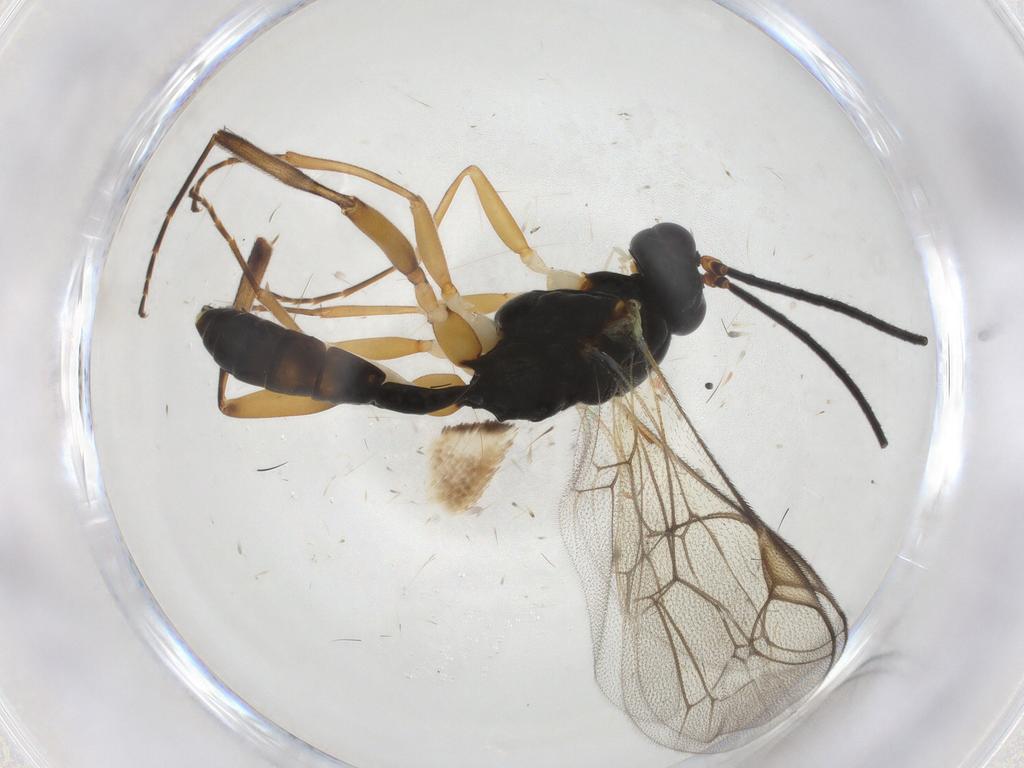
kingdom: Animalia
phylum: Arthropoda
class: Insecta
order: Hymenoptera
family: Ichneumonidae
